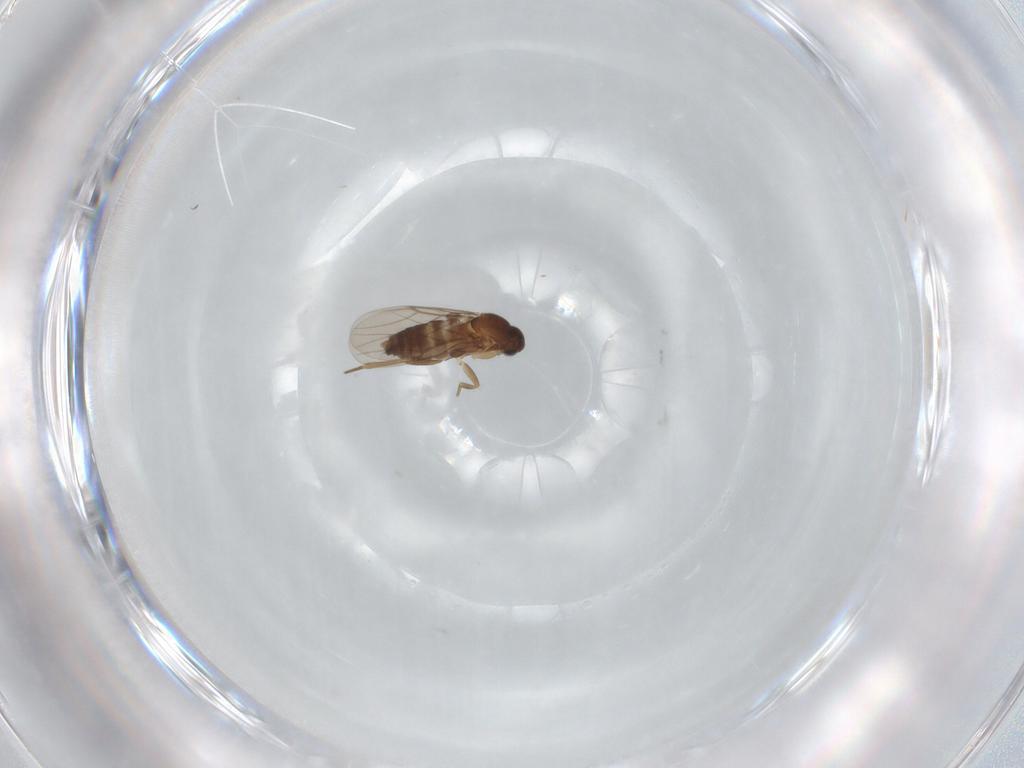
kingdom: Animalia
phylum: Arthropoda
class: Insecta
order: Diptera
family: Phoridae
